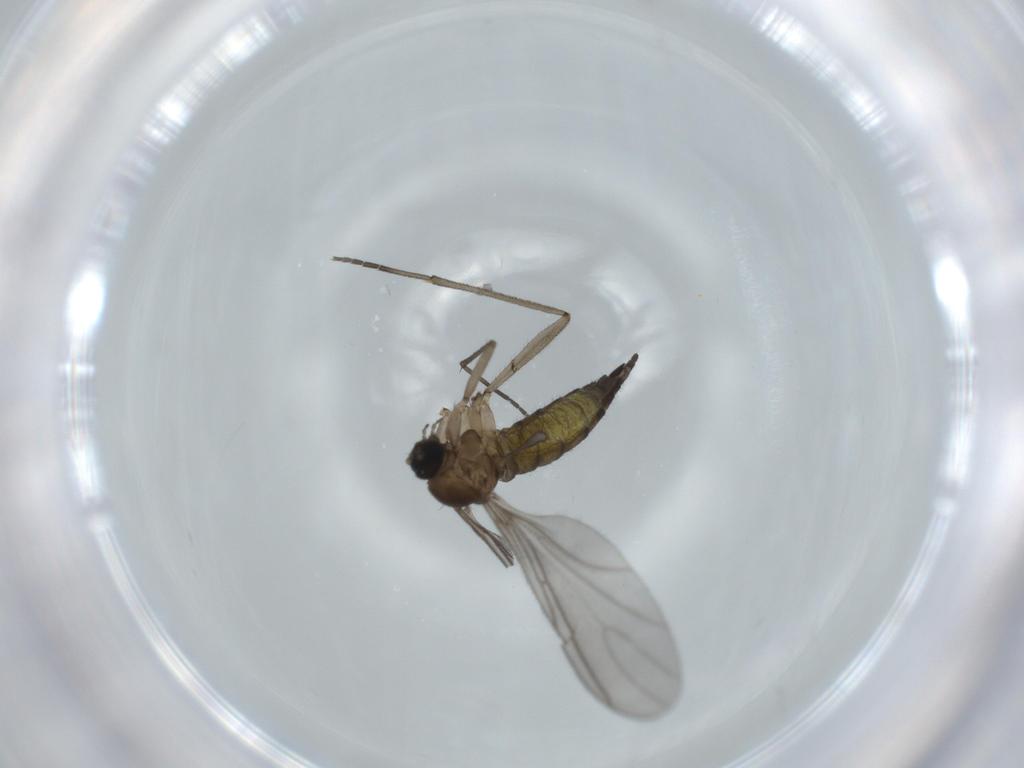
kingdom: Animalia
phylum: Arthropoda
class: Insecta
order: Diptera
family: Sciaridae
